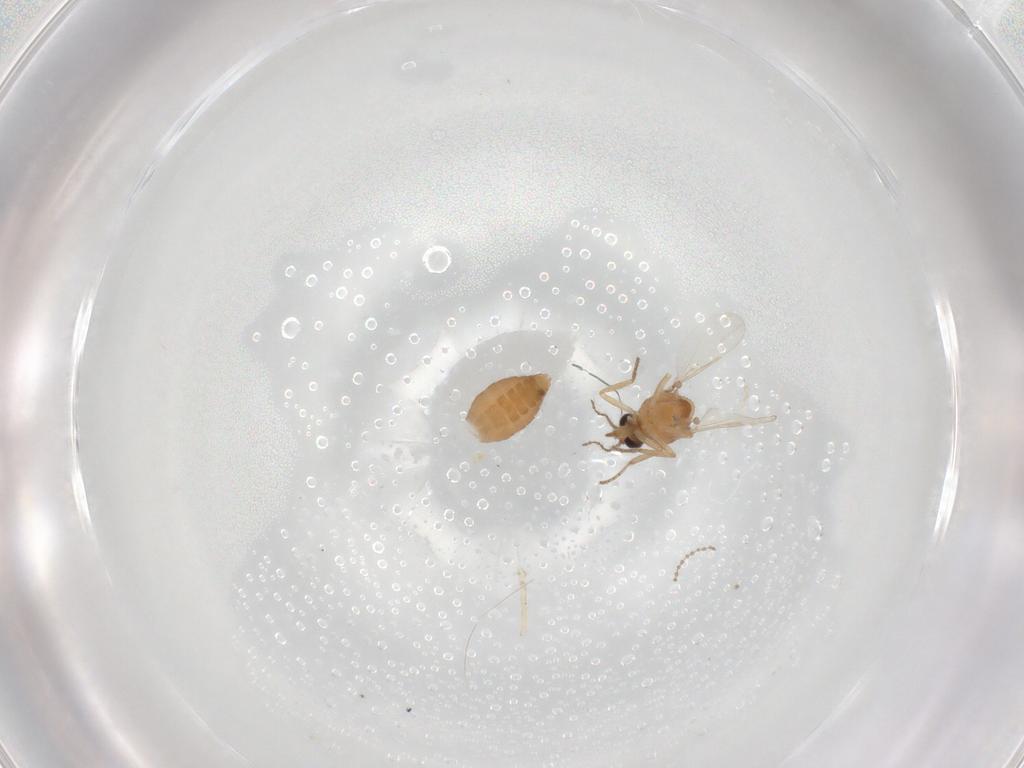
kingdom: Animalia
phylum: Arthropoda
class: Insecta
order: Diptera
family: Ceratopogonidae
